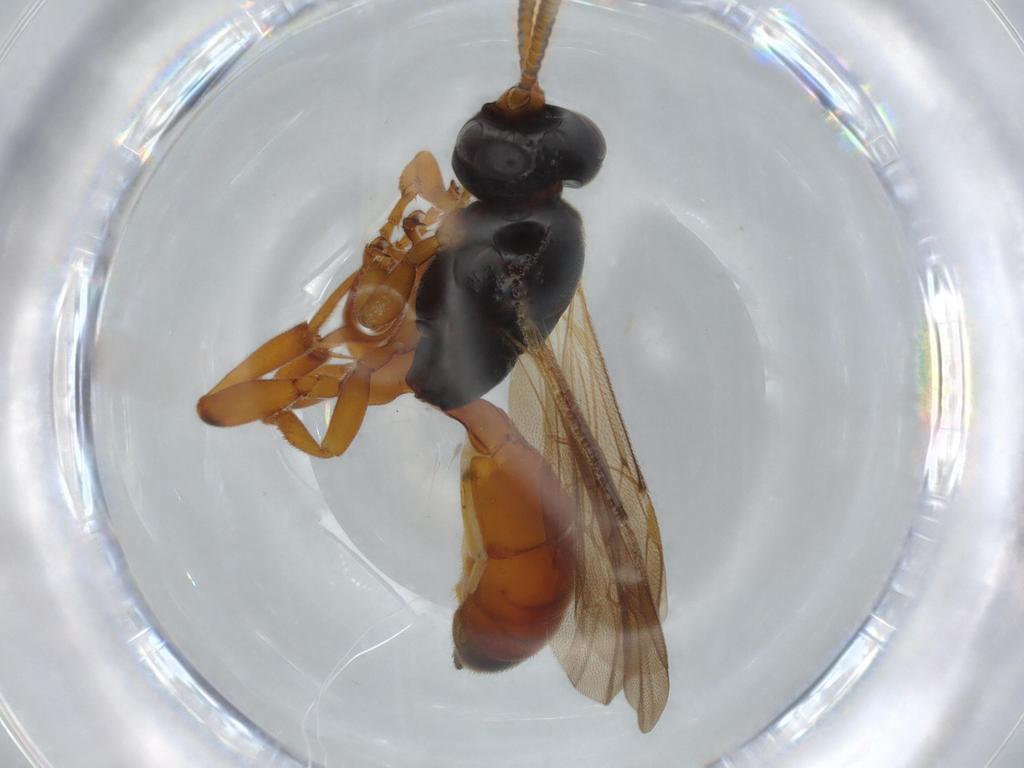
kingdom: Animalia
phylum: Arthropoda
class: Insecta
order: Hymenoptera
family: Ichneumonidae
